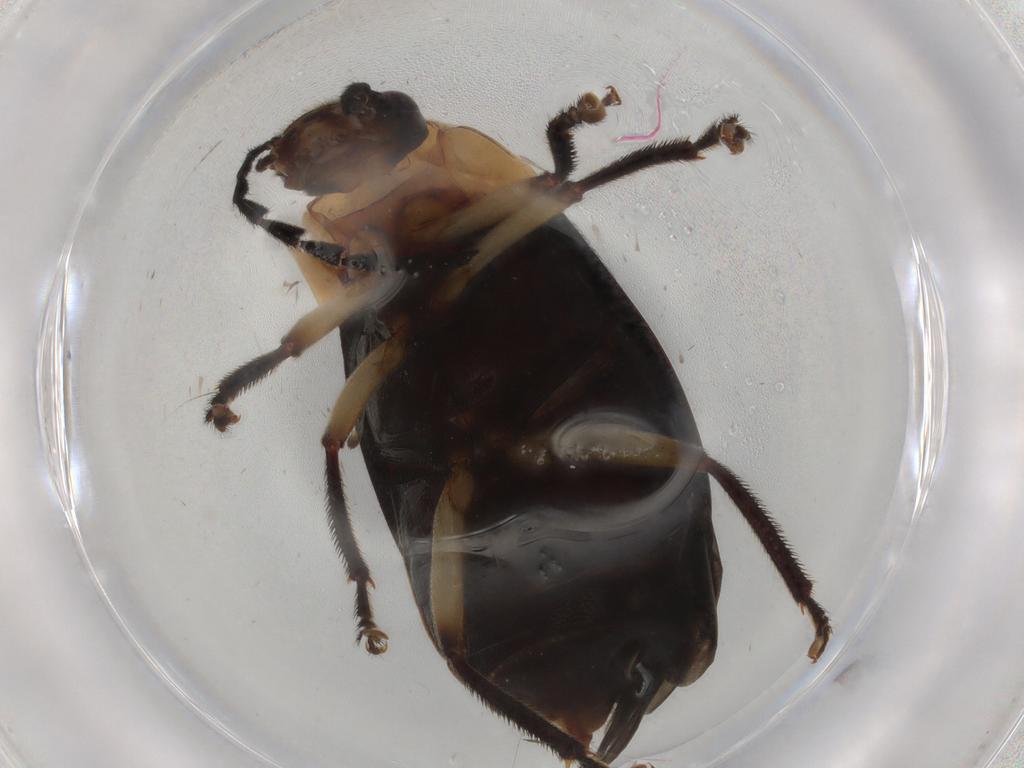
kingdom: Animalia
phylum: Arthropoda
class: Insecta
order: Coleoptera
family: Ptilodactylidae
